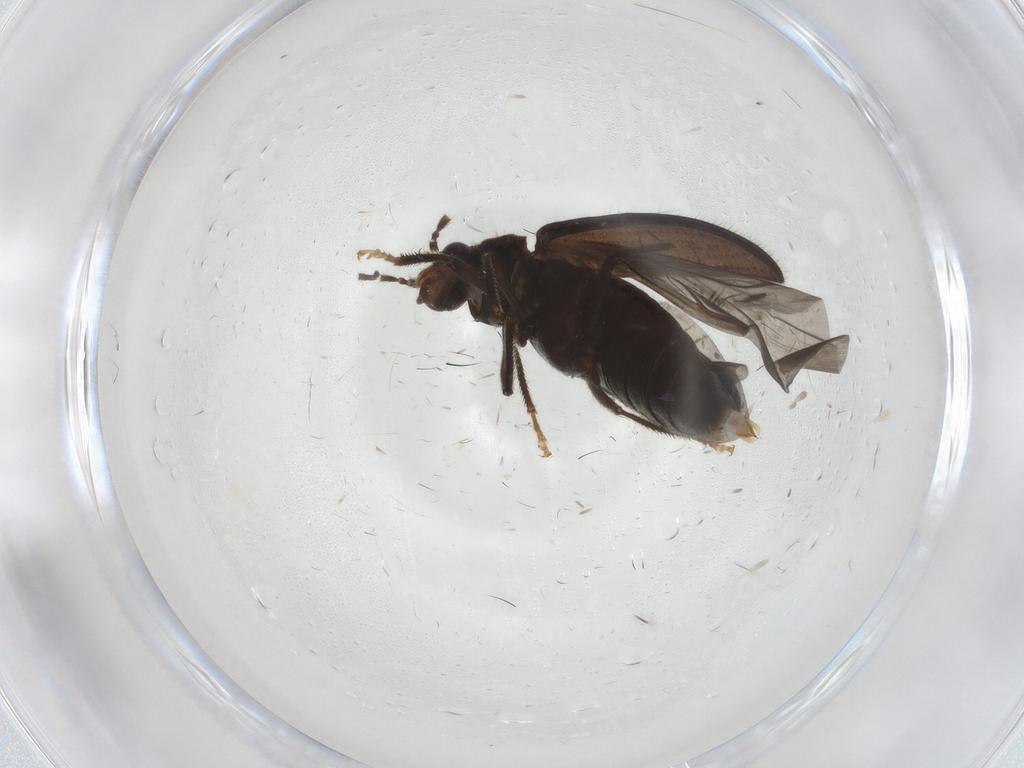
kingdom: Animalia
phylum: Arthropoda
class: Insecta
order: Coleoptera
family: Ptilodactylidae
